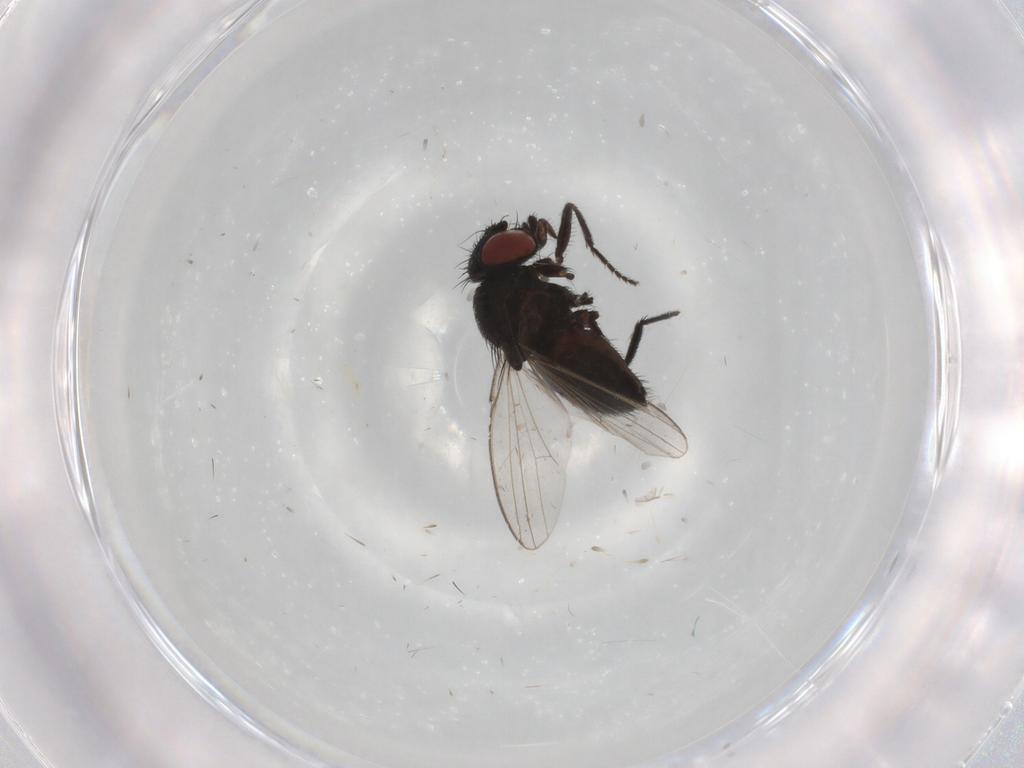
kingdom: Animalia
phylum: Arthropoda
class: Insecta
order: Diptera
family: Cecidomyiidae
